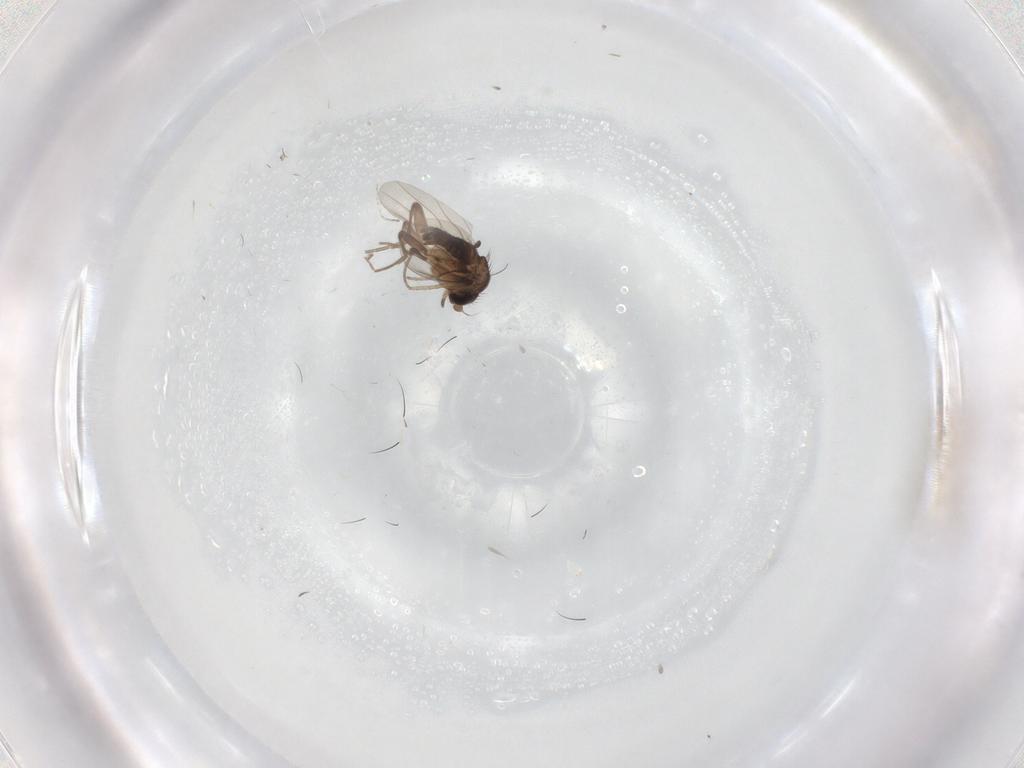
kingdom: Animalia
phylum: Arthropoda
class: Insecta
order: Diptera
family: Phoridae
